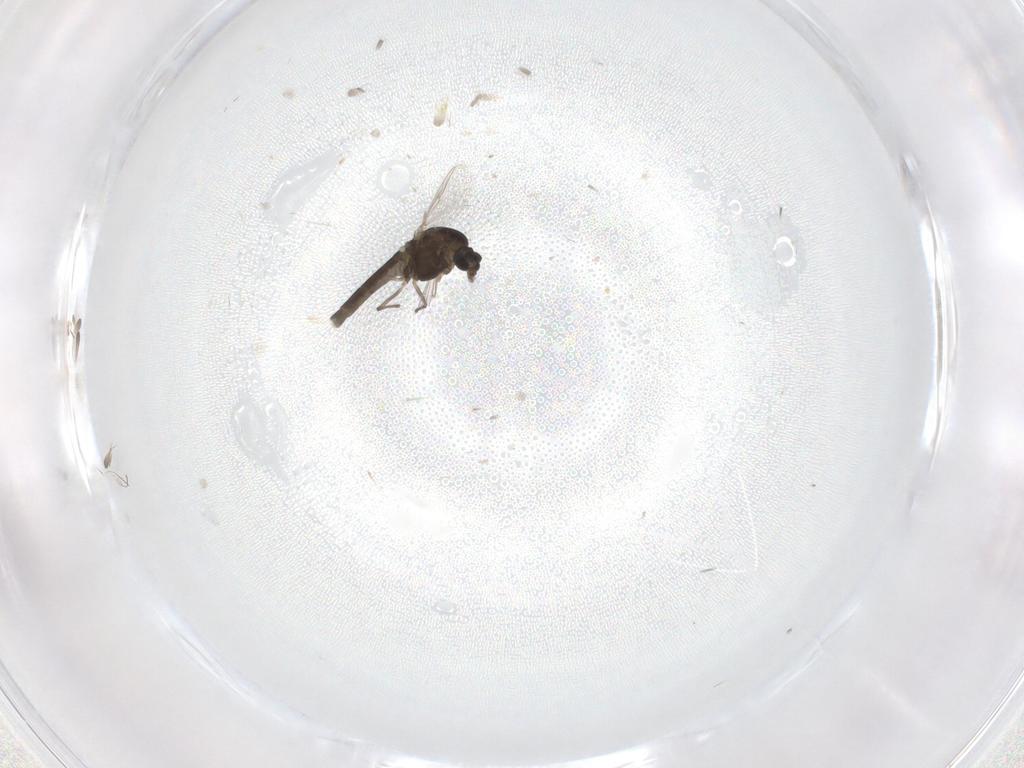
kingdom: Animalia
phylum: Arthropoda
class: Insecta
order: Diptera
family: Chironomidae
